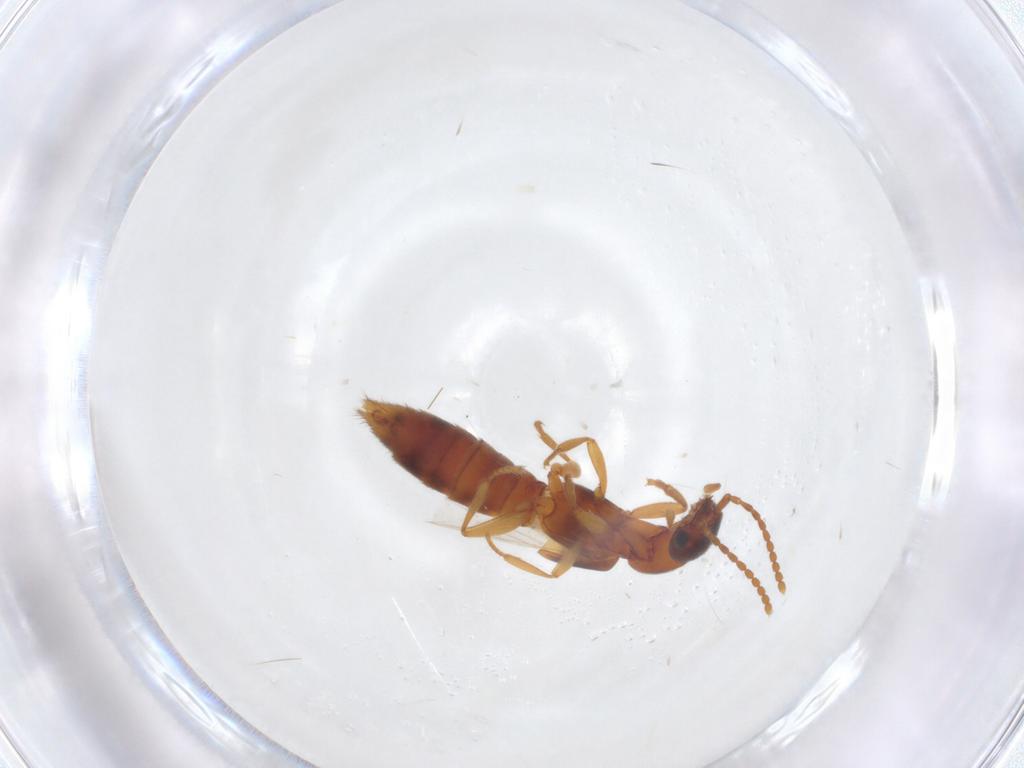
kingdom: Animalia
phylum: Arthropoda
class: Insecta
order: Coleoptera
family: Staphylinidae
